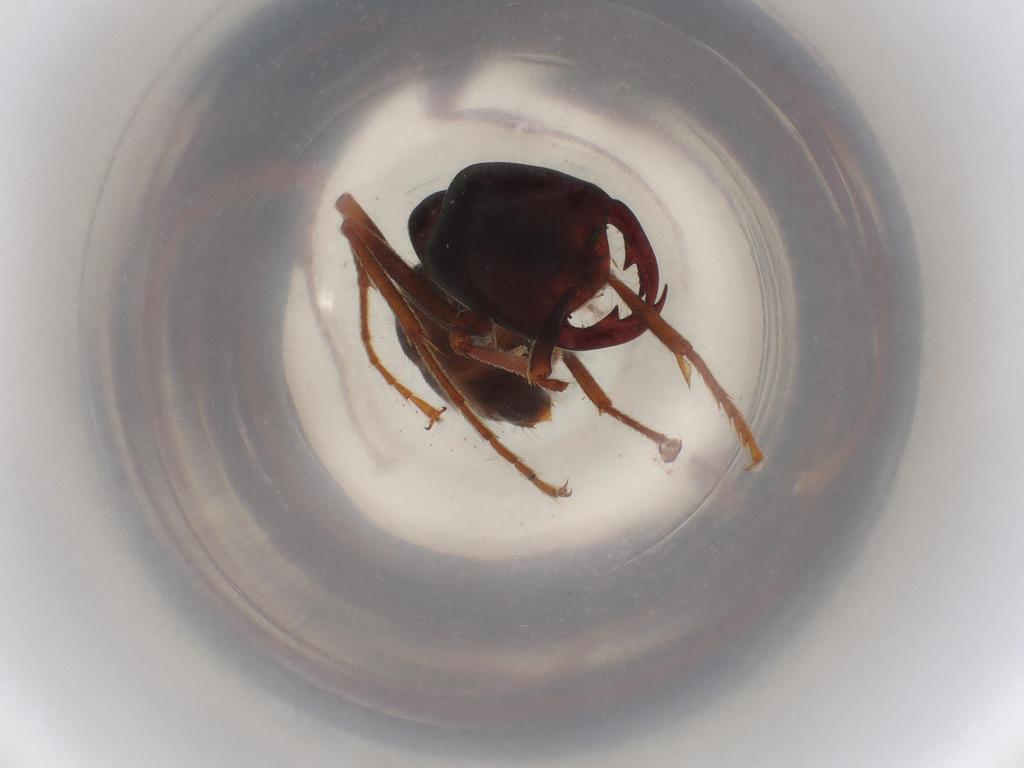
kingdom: Animalia
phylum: Arthropoda
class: Insecta
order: Hymenoptera
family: Formicidae
